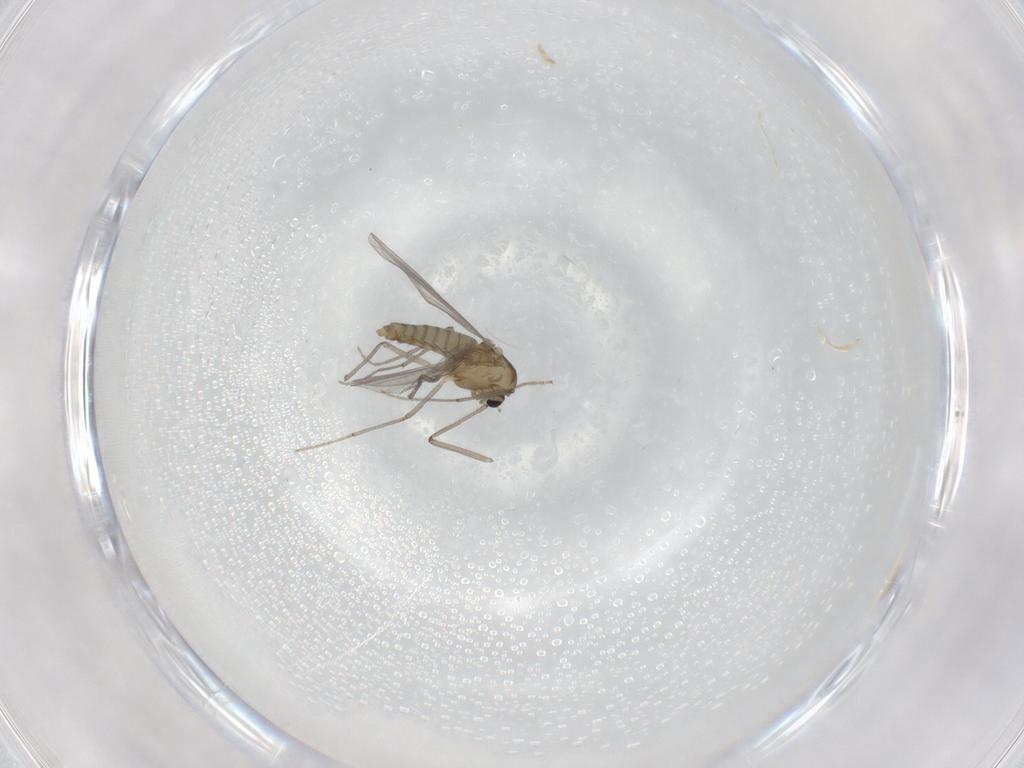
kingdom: Animalia
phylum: Arthropoda
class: Insecta
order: Diptera
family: Cecidomyiidae
